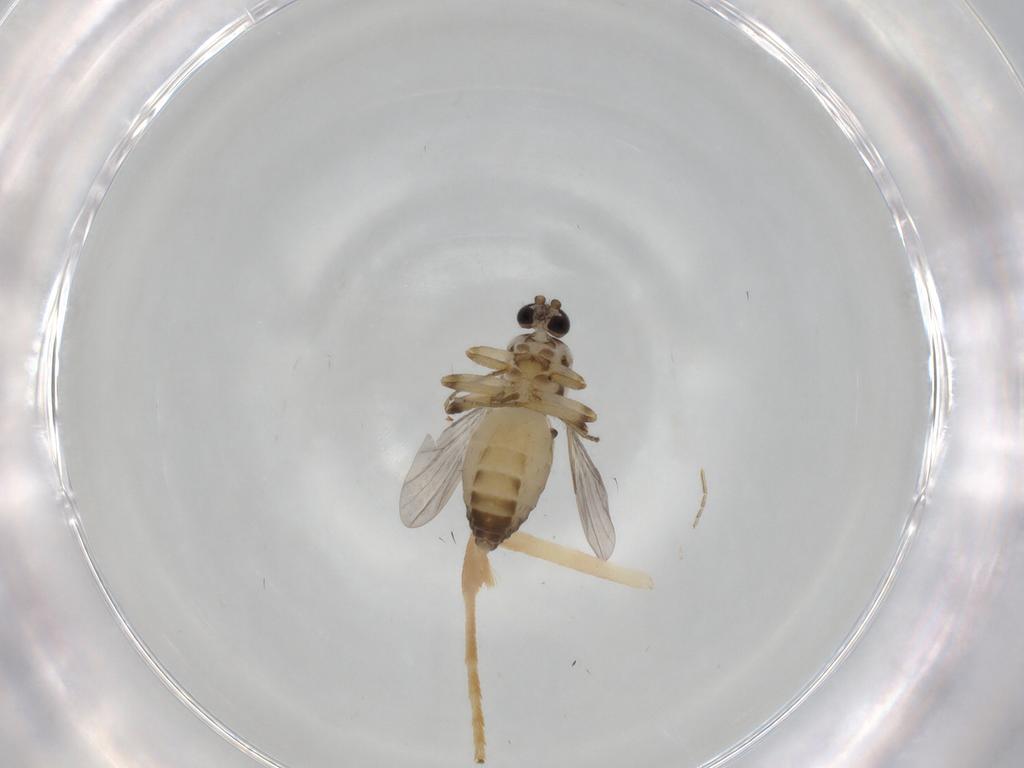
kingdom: Animalia
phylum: Arthropoda
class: Insecta
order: Diptera
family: Ceratopogonidae
